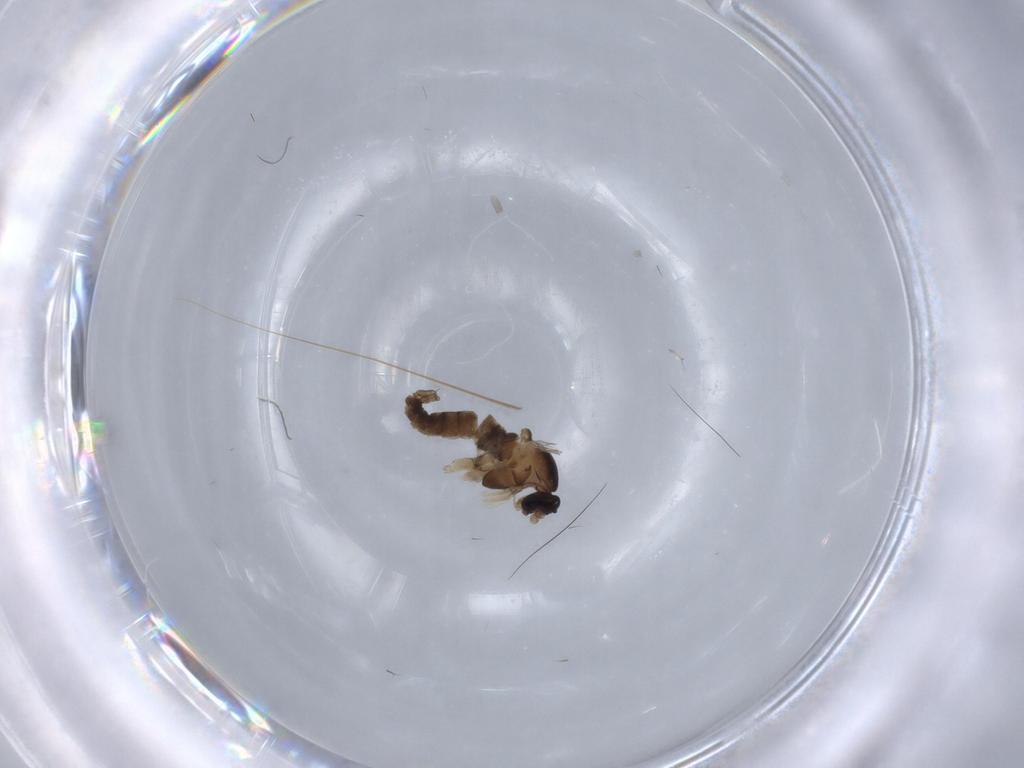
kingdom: Animalia
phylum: Arthropoda
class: Insecta
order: Diptera
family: Cecidomyiidae
